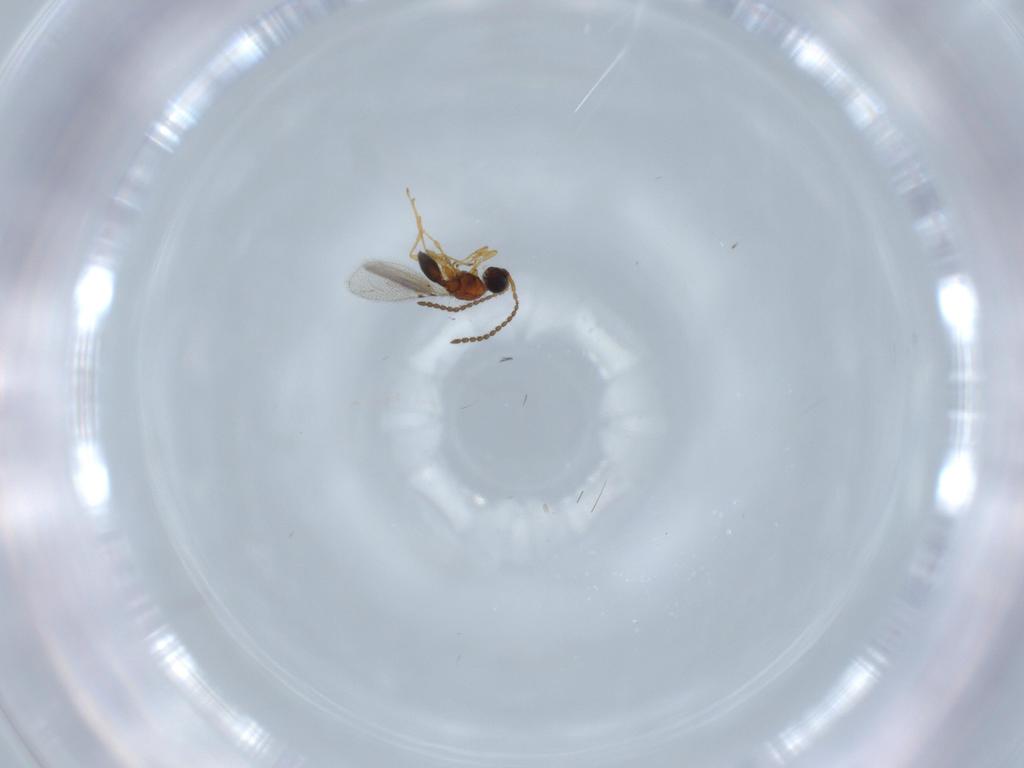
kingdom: Animalia
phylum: Arthropoda
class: Insecta
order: Hymenoptera
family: Diapriidae
